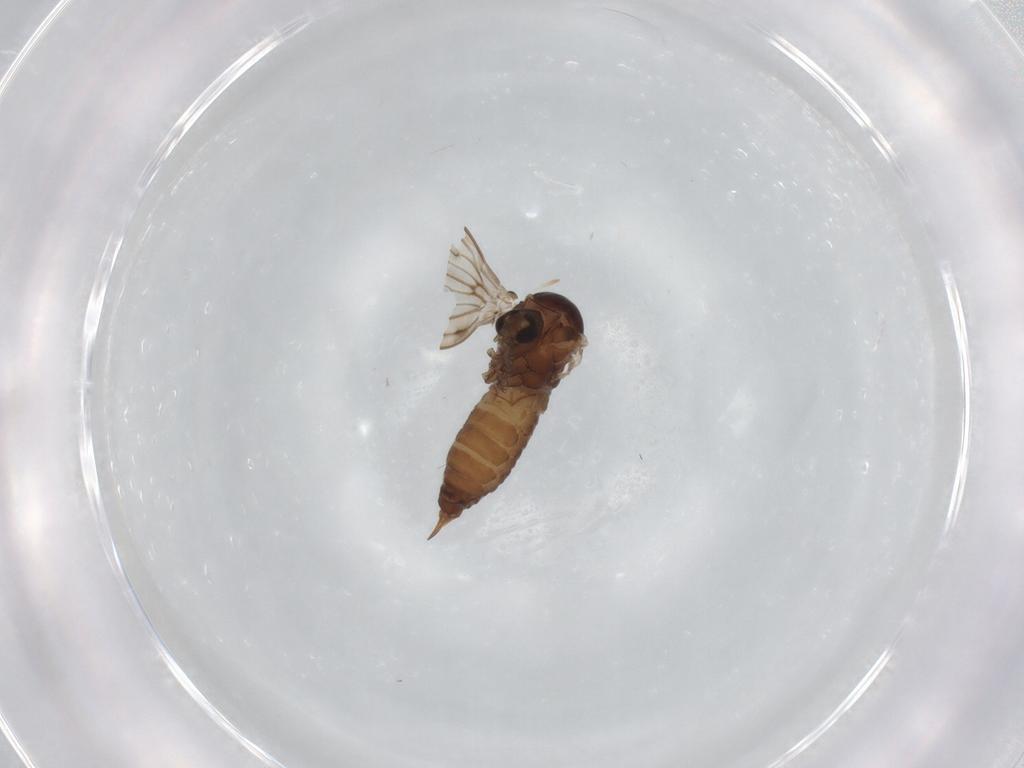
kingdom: Animalia
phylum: Arthropoda
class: Insecta
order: Diptera
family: Psychodidae
